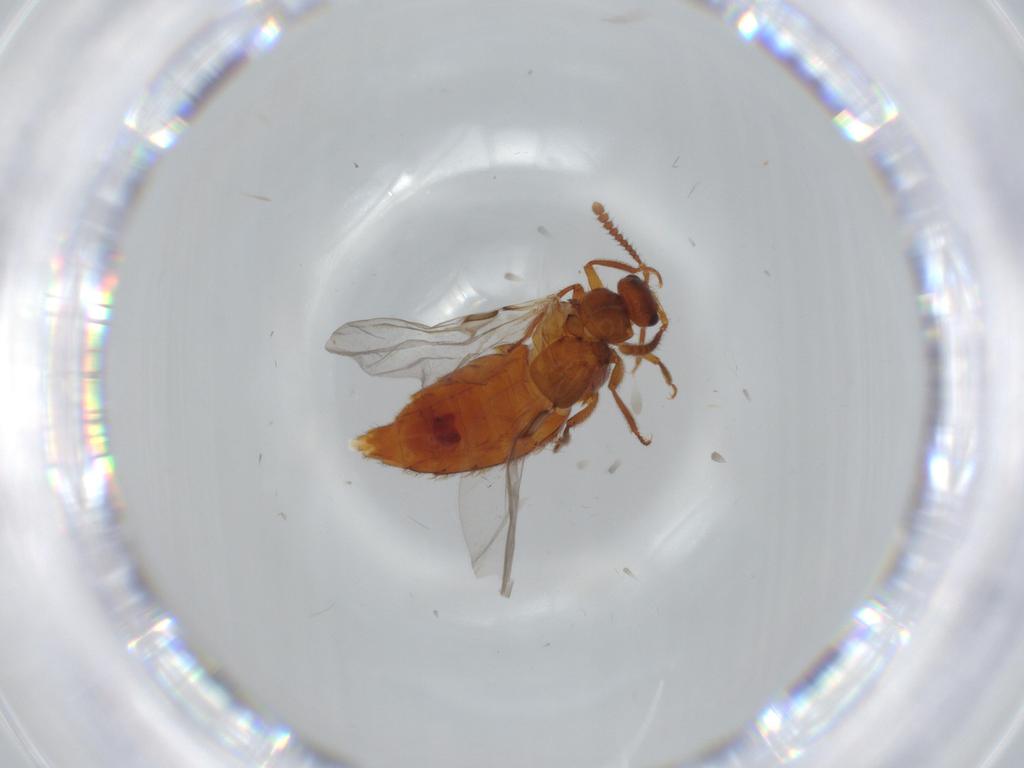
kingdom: Animalia
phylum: Arthropoda
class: Insecta
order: Coleoptera
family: Staphylinidae
